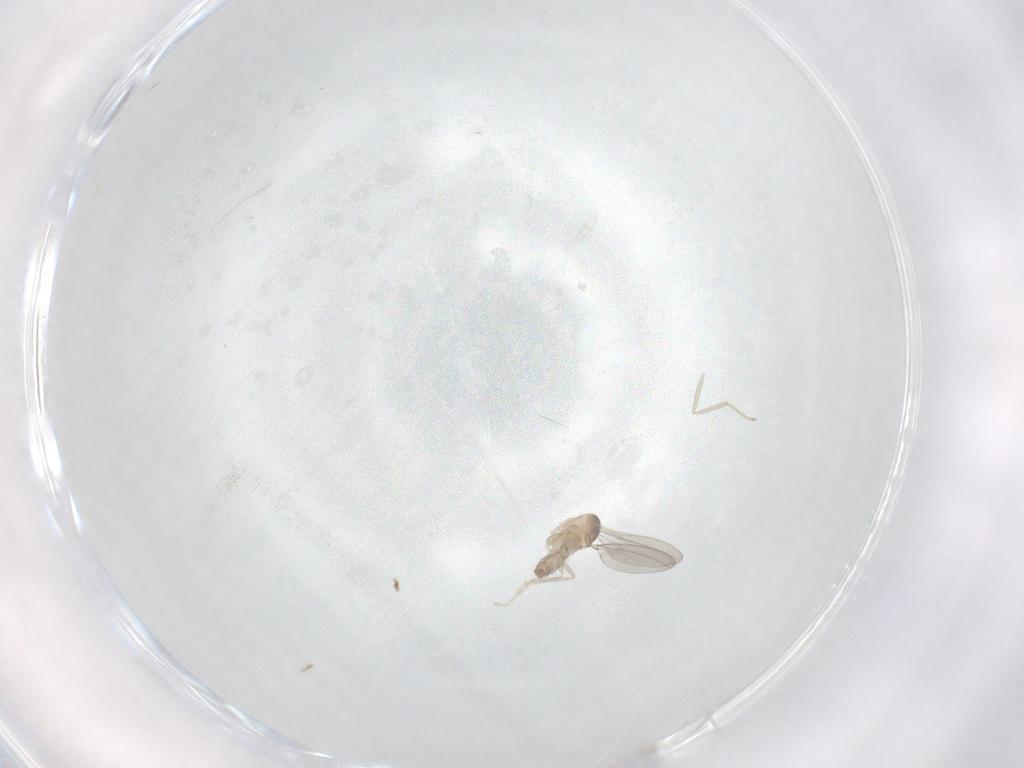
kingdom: Animalia
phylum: Arthropoda
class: Insecta
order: Diptera
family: Cecidomyiidae
